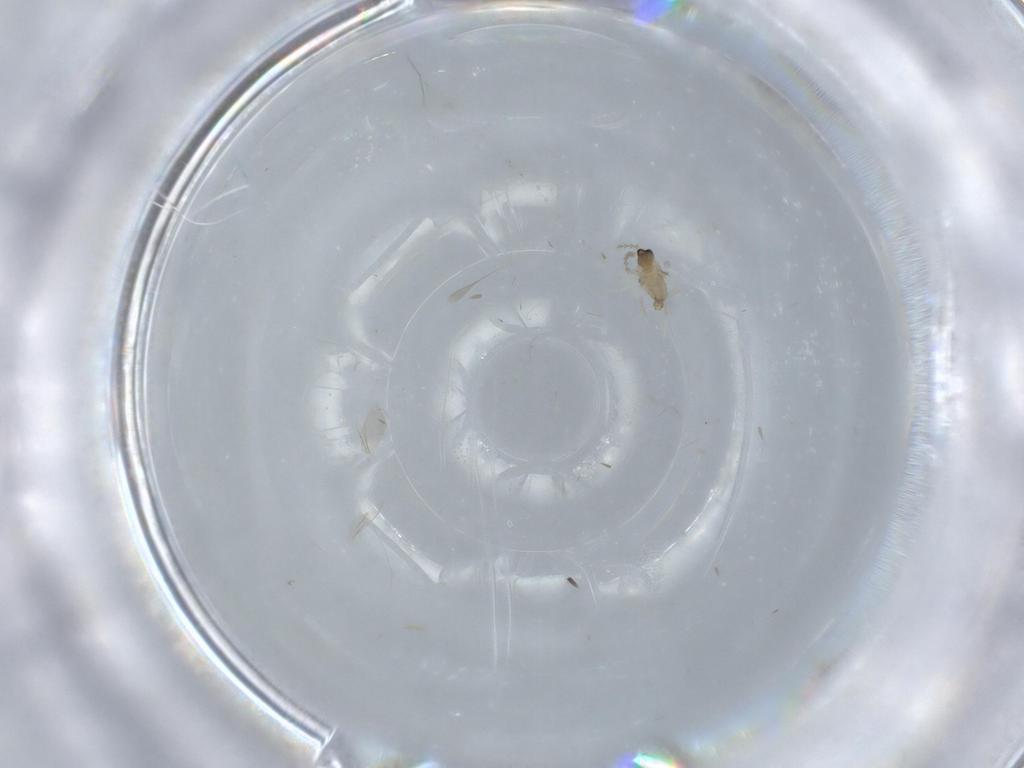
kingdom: Animalia
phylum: Arthropoda
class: Insecta
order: Diptera
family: Cecidomyiidae
